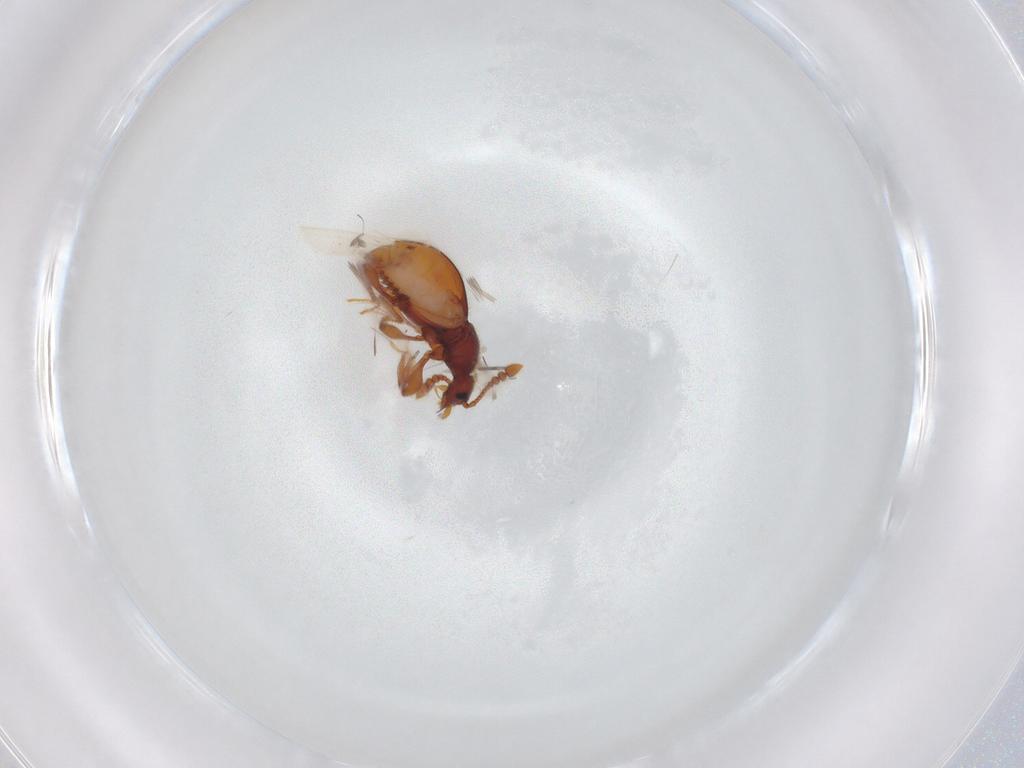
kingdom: Animalia
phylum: Arthropoda
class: Insecta
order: Coleoptera
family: Staphylinidae
